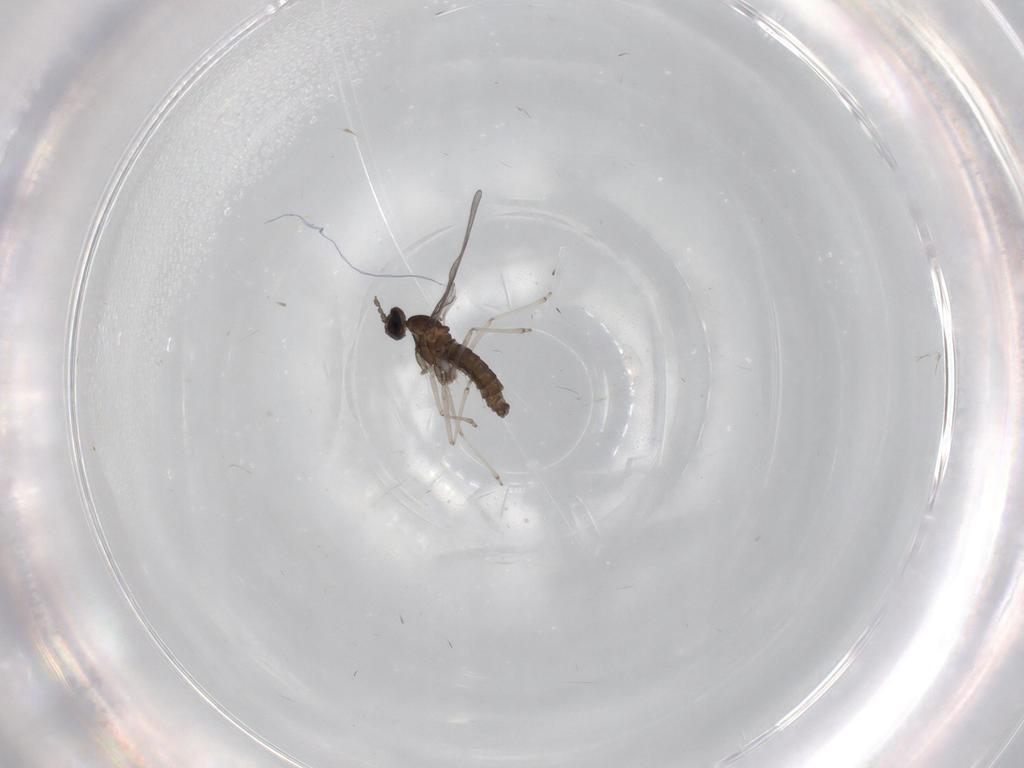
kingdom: Animalia
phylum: Arthropoda
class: Insecta
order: Diptera
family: Cecidomyiidae
